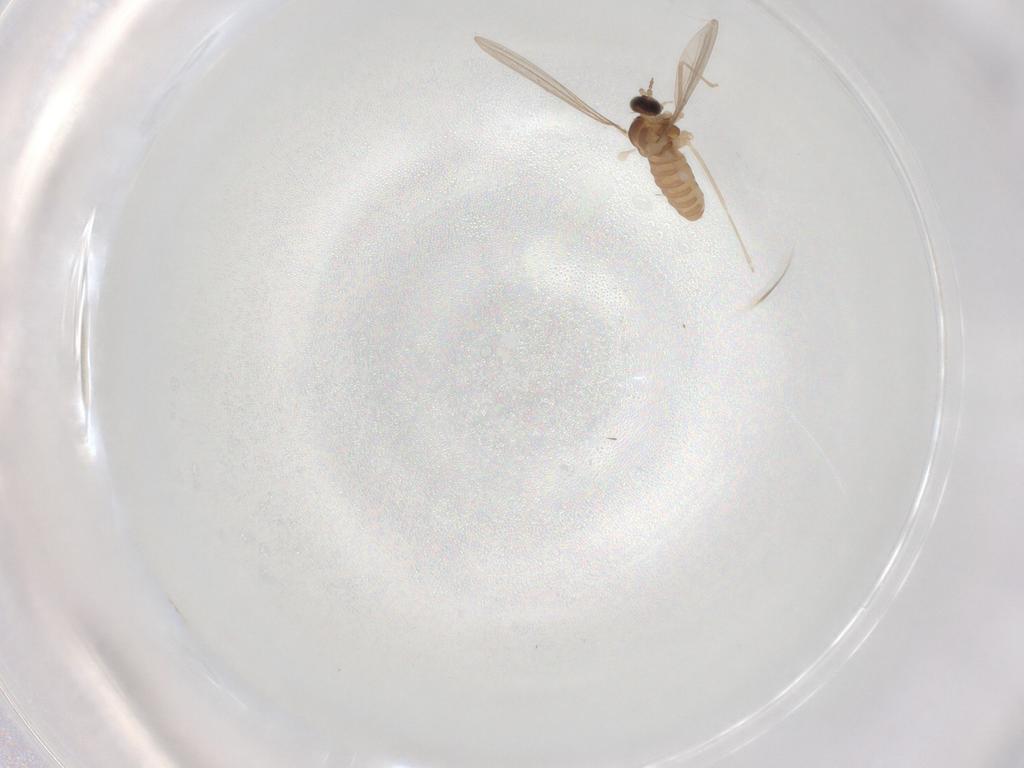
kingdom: Animalia
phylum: Arthropoda
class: Insecta
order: Diptera
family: Cecidomyiidae
